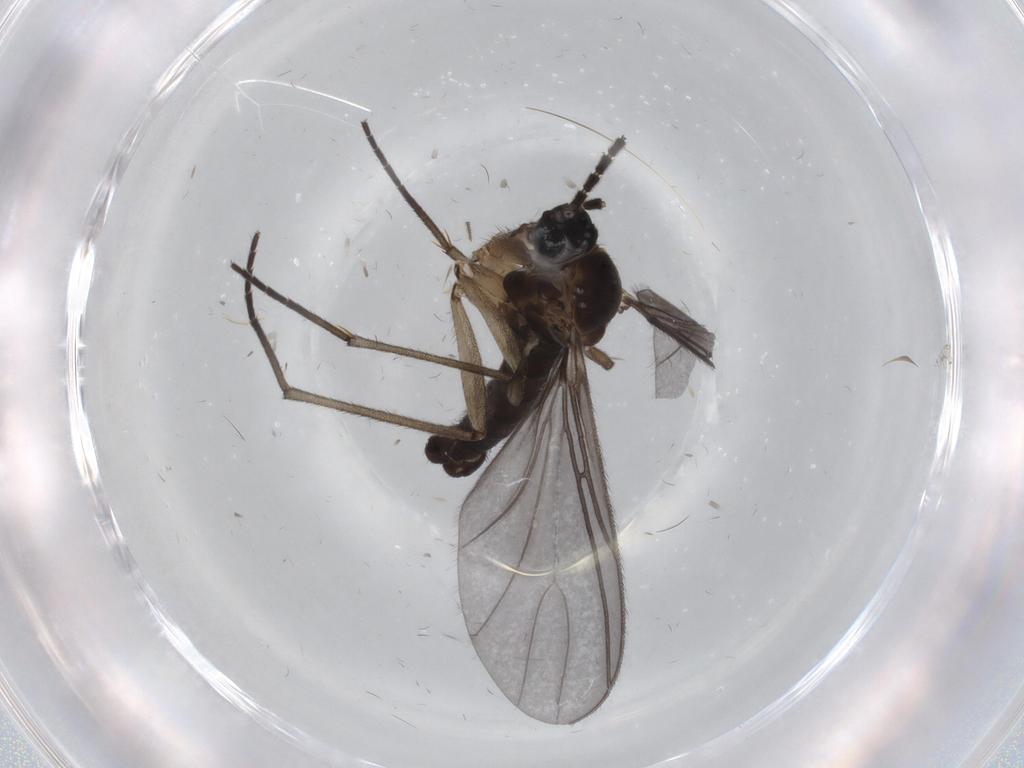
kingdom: Animalia
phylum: Arthropoda
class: Insecta
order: Diptera
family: Sciaridae
